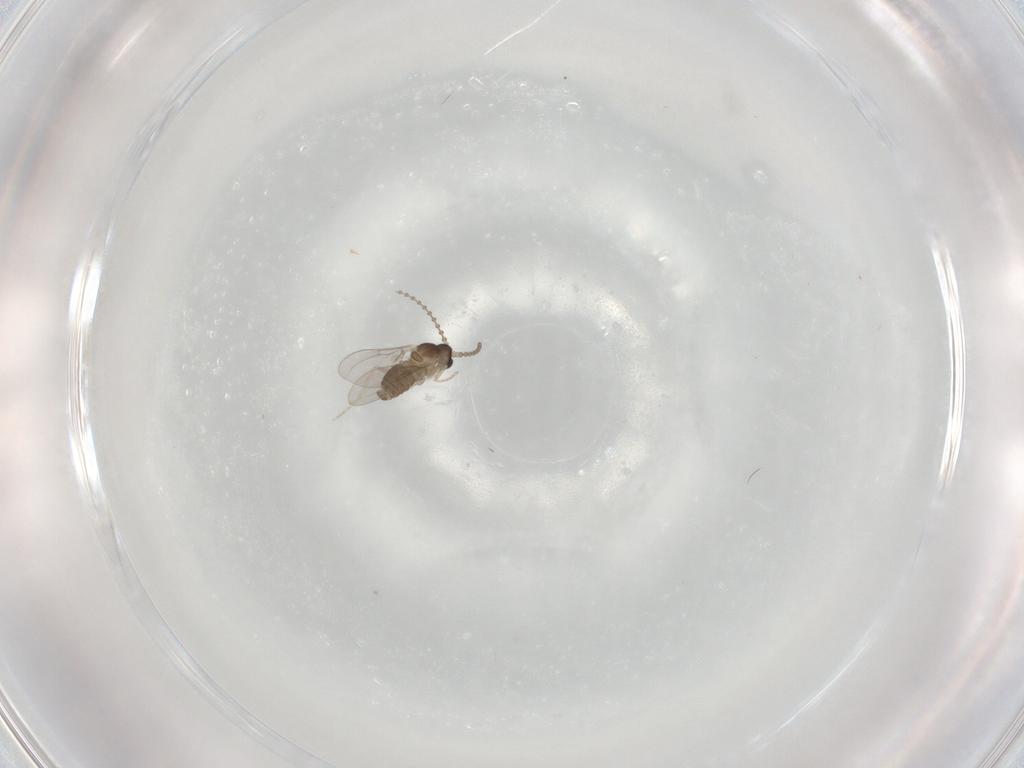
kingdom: Animalia
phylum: Arthropoda
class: Insecta
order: Diptera
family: Cecidomyiidae
